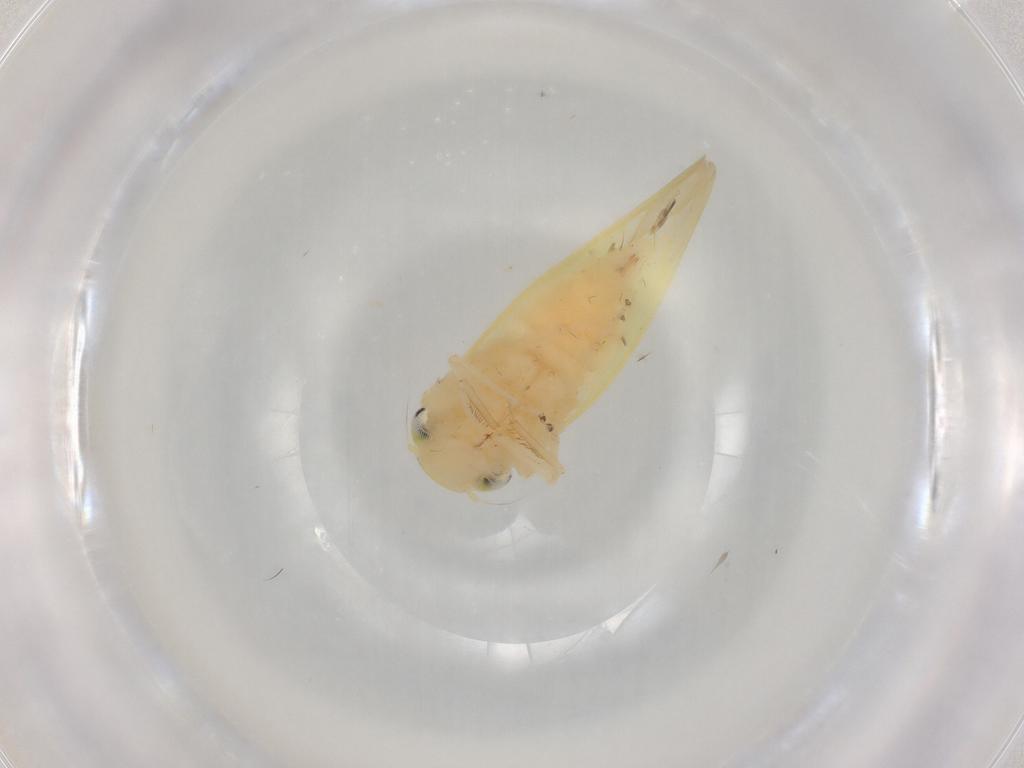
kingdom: Animalia
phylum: Arthropoda
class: Insecta
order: Hemiptera
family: Cicadellidae
